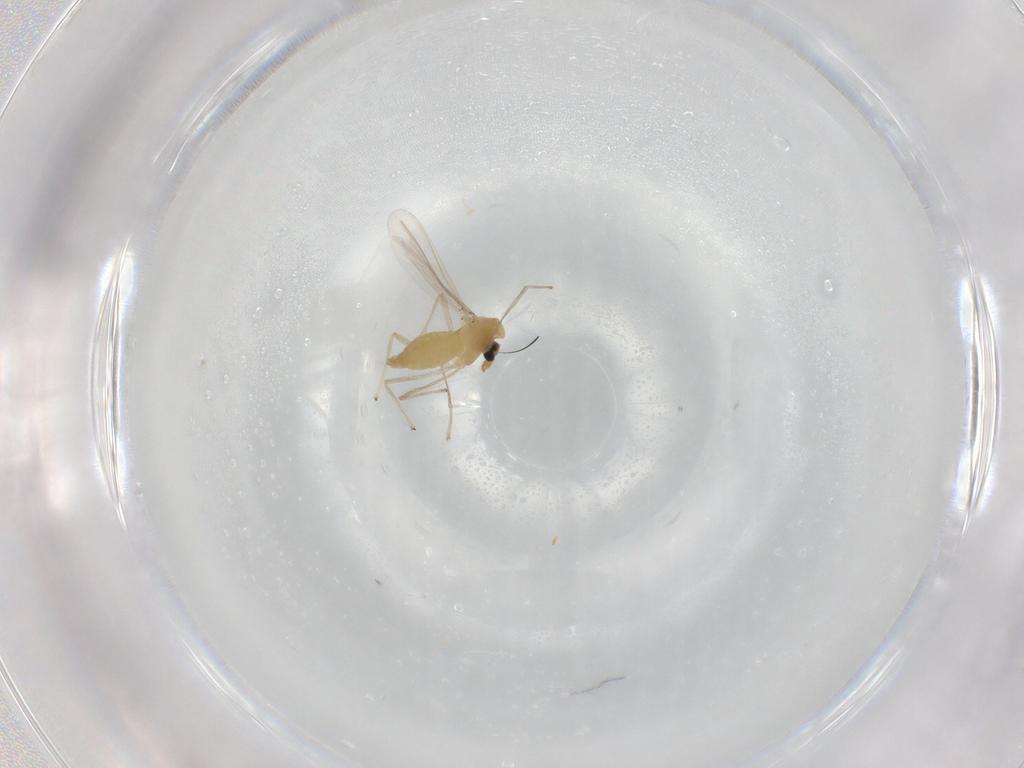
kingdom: Animalia
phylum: Arthropoda
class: Insecta
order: Diptera
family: Chironomidae
